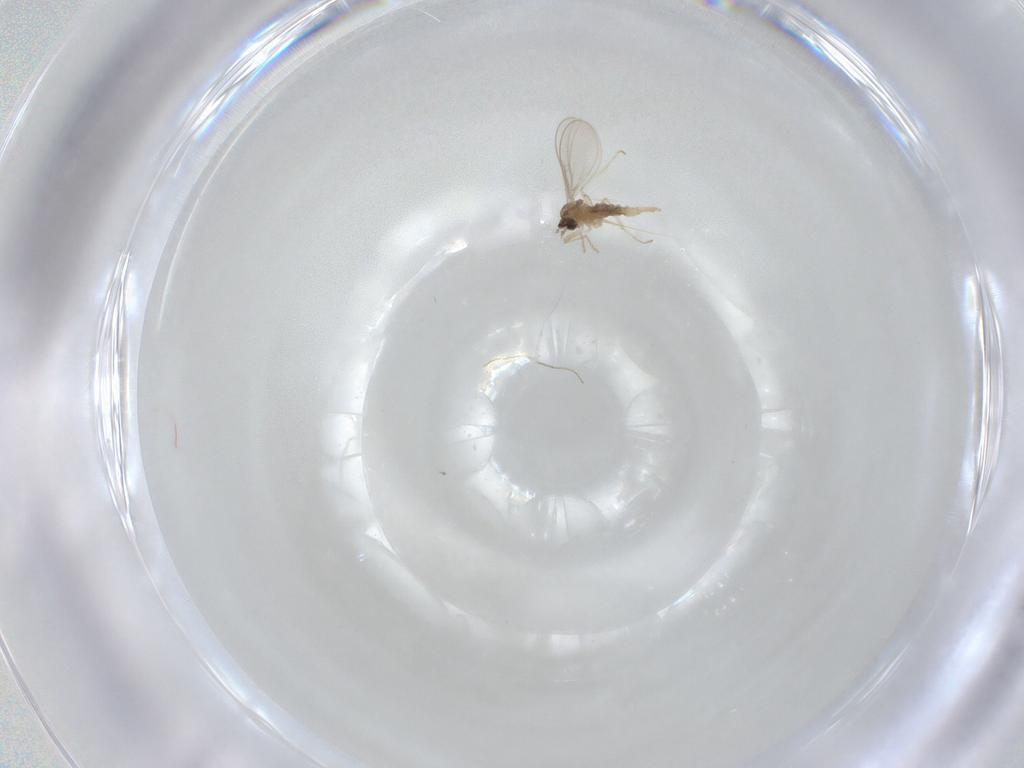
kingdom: Animalia
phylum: Arthropoda
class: Insecta
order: Diptera
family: Cecidomyiidae
